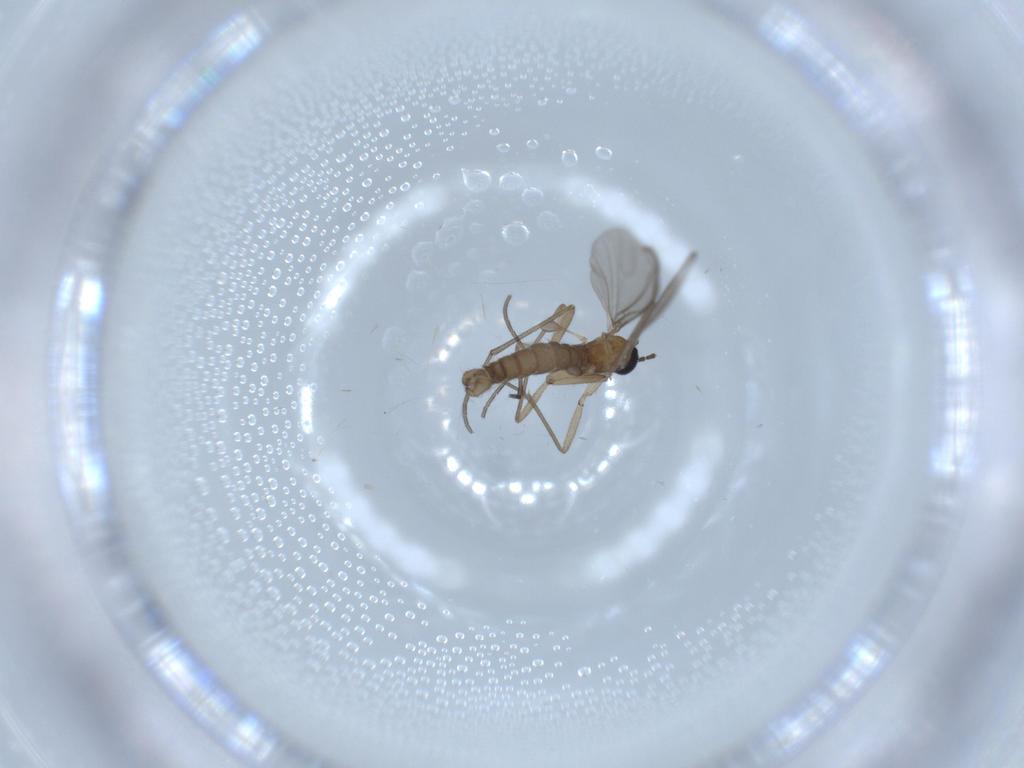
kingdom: Animalia
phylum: Arthropoda
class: Insecta
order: Diptera
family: Sciaridae
